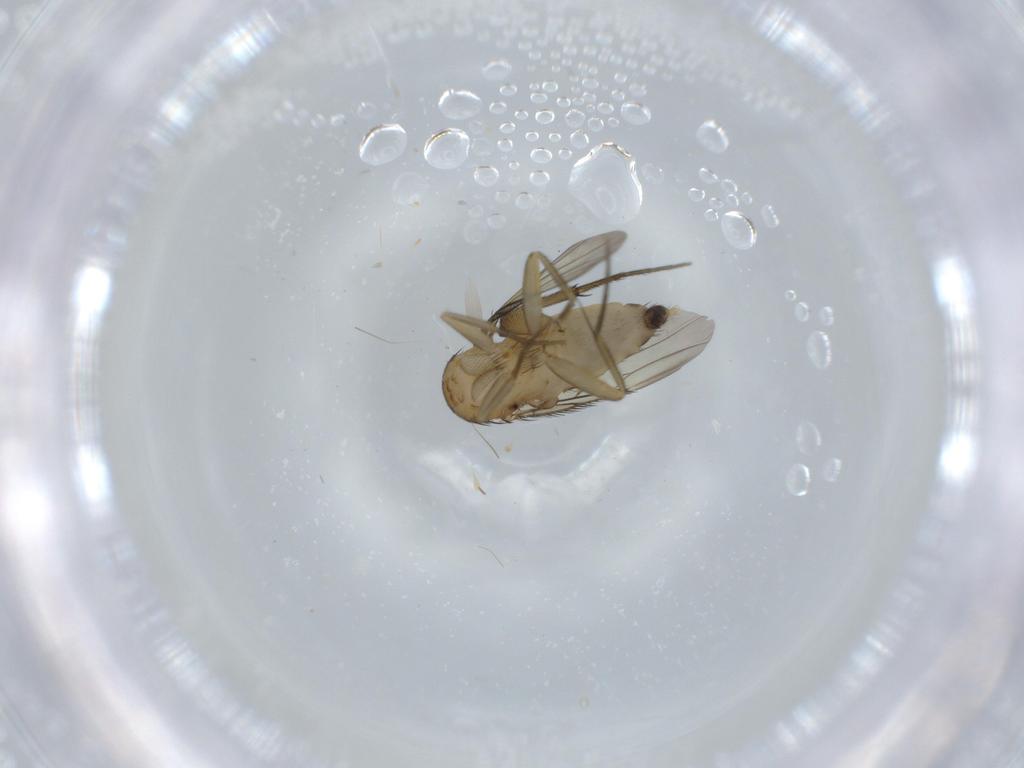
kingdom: Animalia
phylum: Arthropoda
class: Insecta
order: Diptera
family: Phoridae
